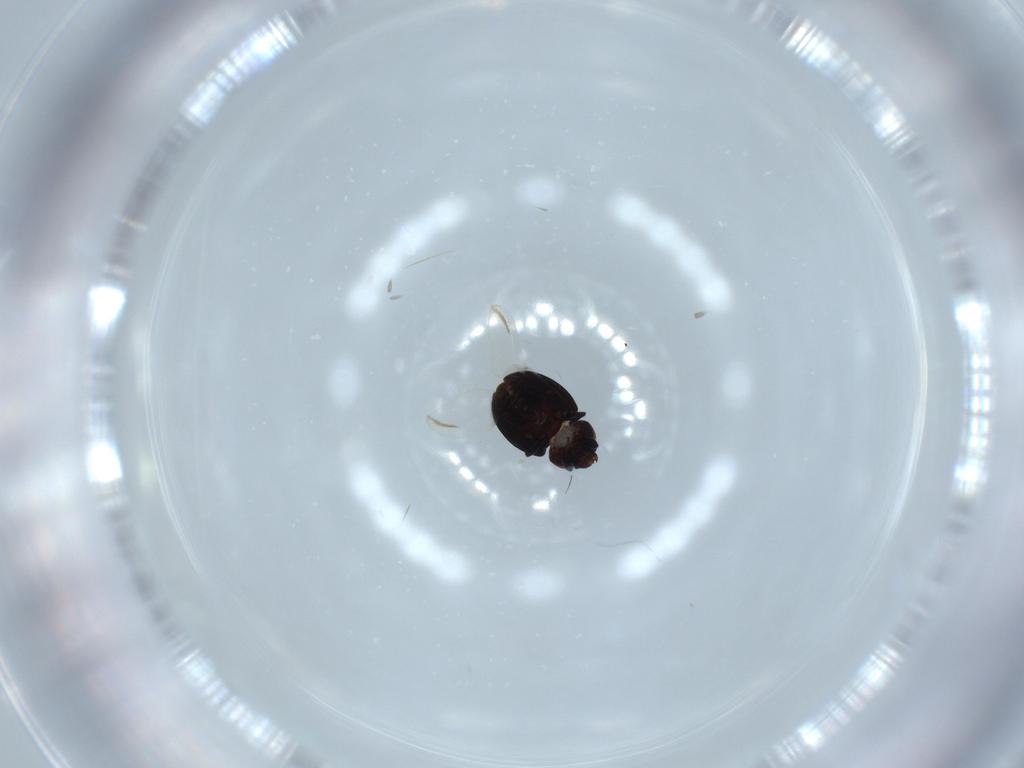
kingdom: Animalia
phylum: Arthropoda
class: Insecta
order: Coleoptera
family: Coccinellidae
